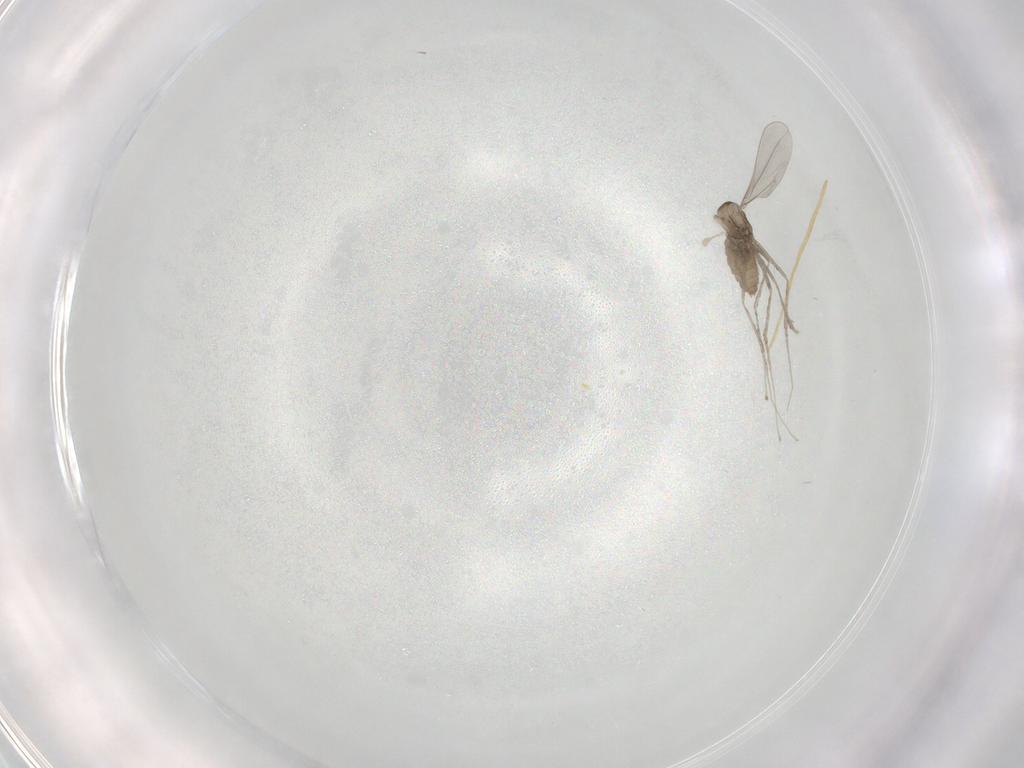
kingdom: Animalia
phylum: Arthropoda
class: Insecta
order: Diptera
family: Dolichopodidae
